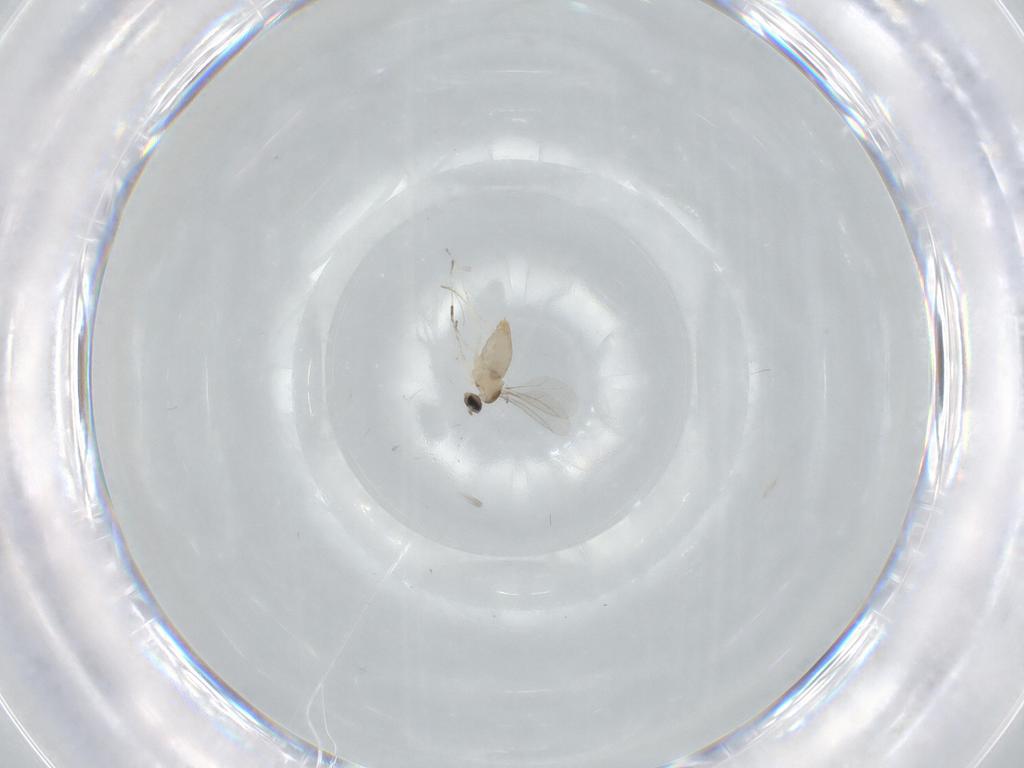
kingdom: Animalia
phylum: Arthropoda
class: Insecta
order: Diptera
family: Cecidomyiidae
